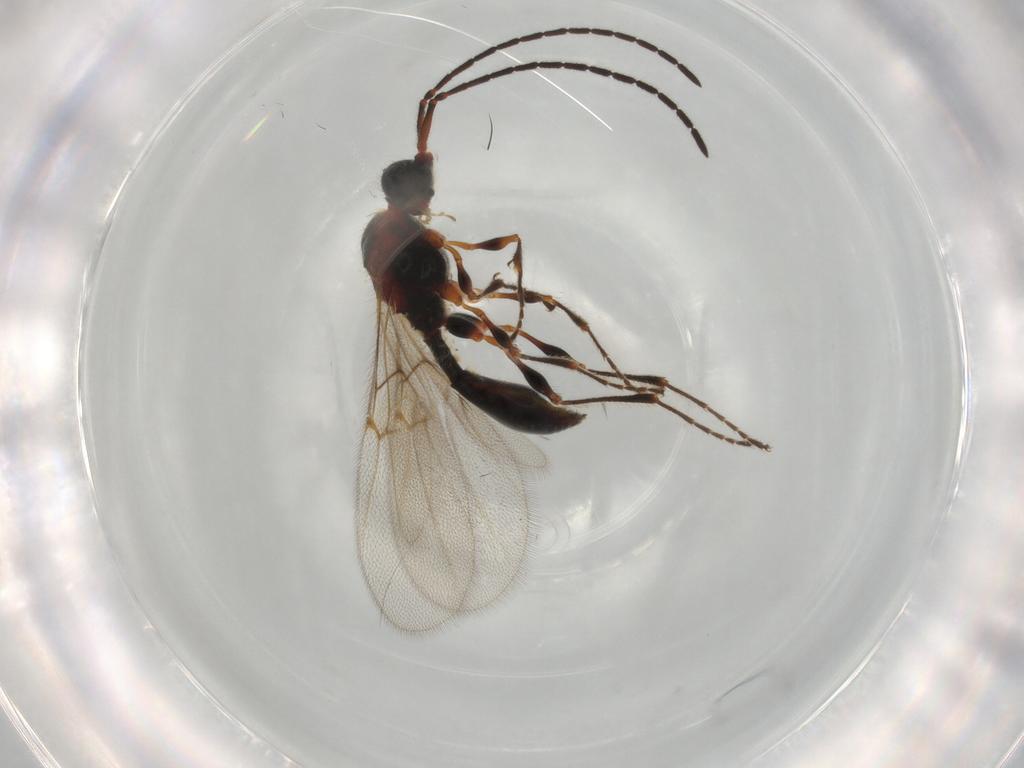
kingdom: Animalia
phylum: Arthropoda
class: Insecta
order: Hymenoptera
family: Diapriidae
